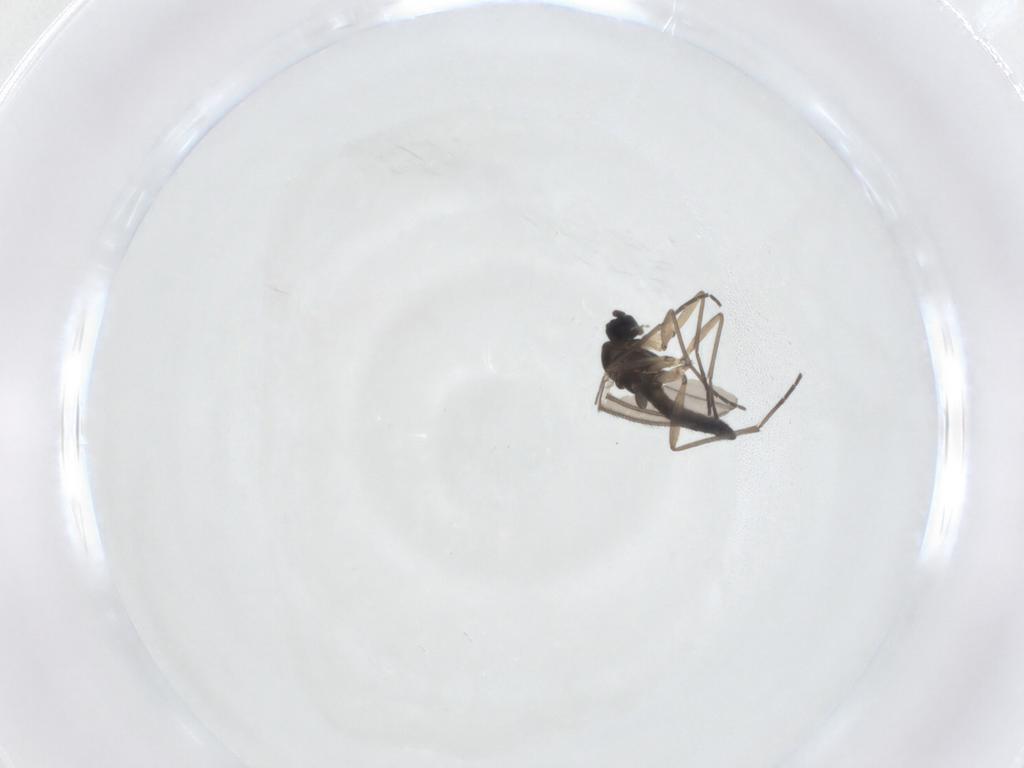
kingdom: Animalia
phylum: Arthropoda
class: Insecta
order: Diptera
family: Sciaridae
